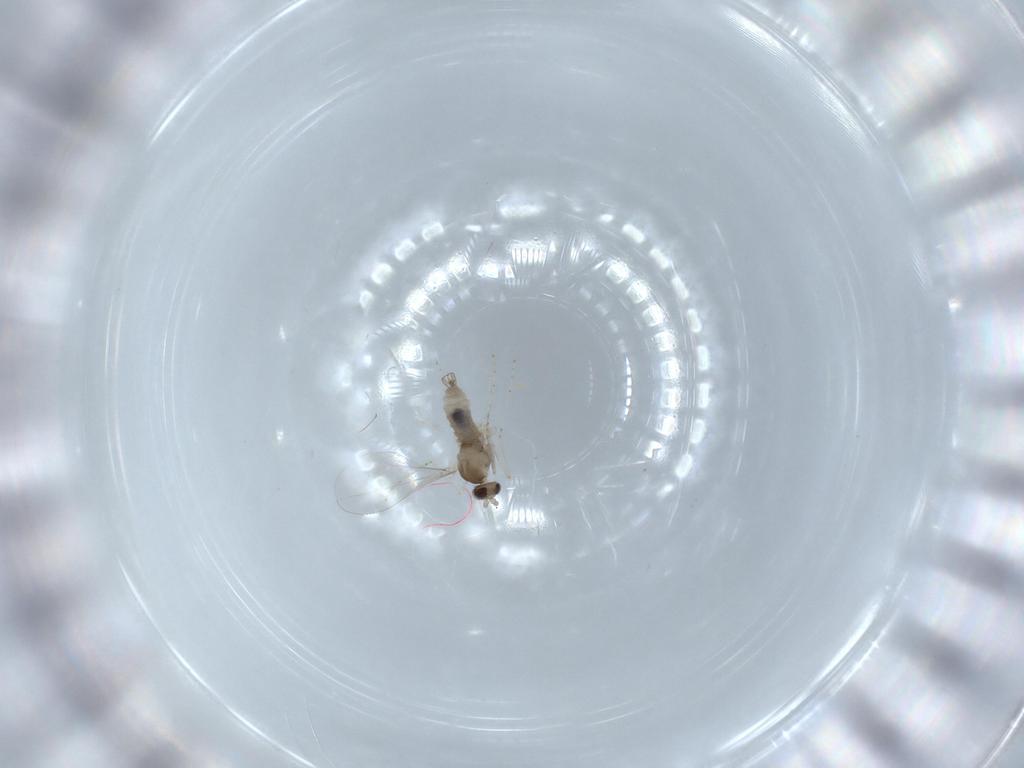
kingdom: Animalia
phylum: Arthropoda
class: Insecta
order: Diptera
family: Cecidomyiidae
